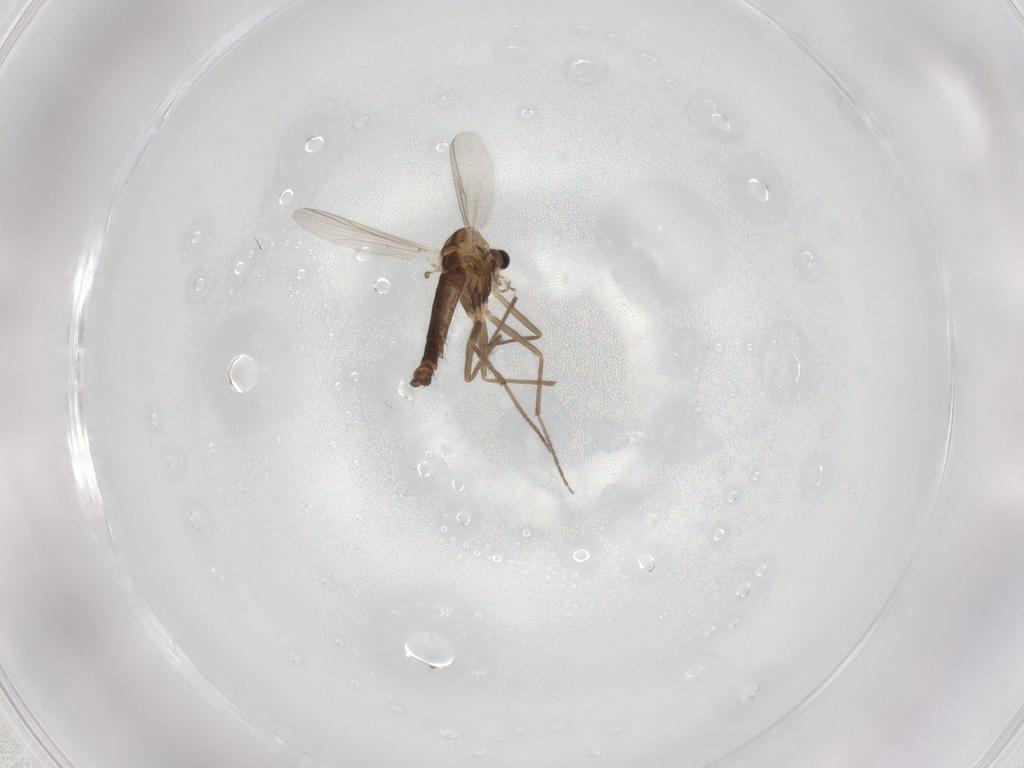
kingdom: Animalia
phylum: Arthropoda
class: Insecta
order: Diptera
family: Chironomidae
